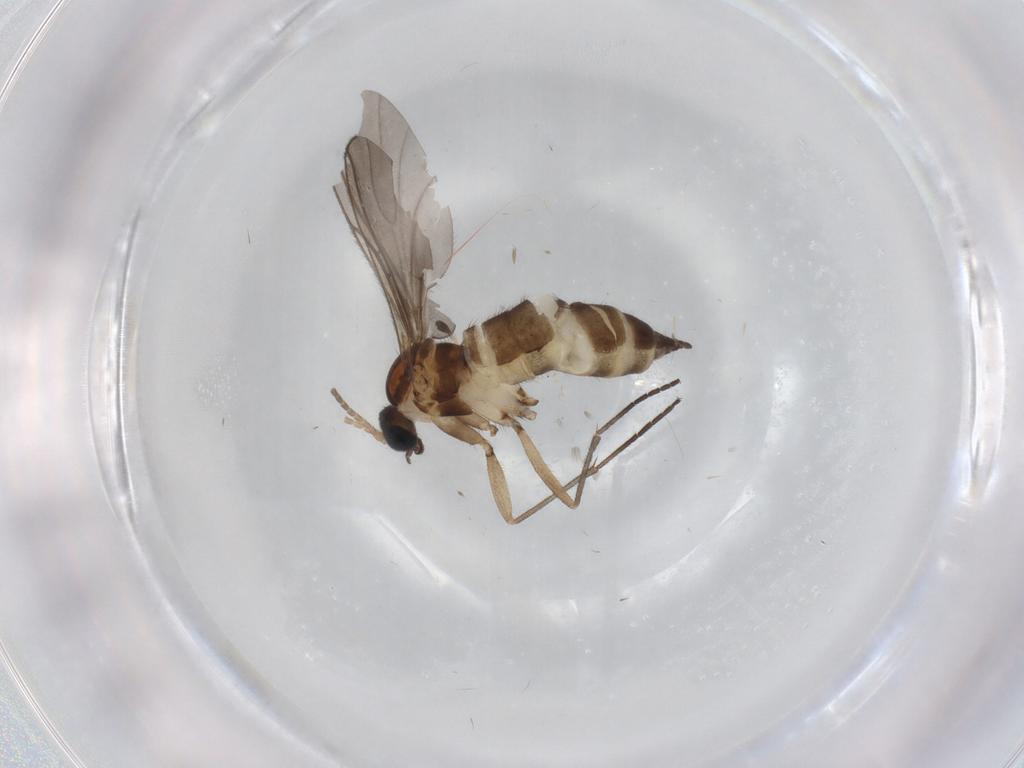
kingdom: Animalia
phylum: Arthropoda
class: Insecta
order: Diptera
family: Sciaridae
